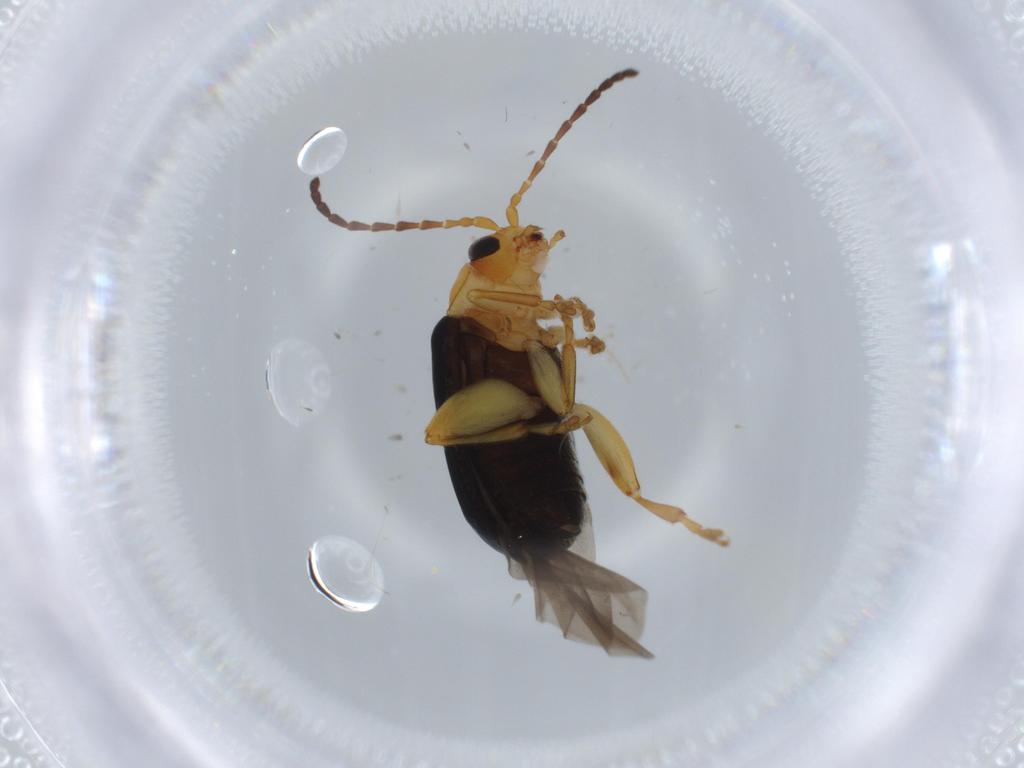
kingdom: Animalia
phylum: Arthropoda
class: Insecta
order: Coleoptera
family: Chrysomelidae
